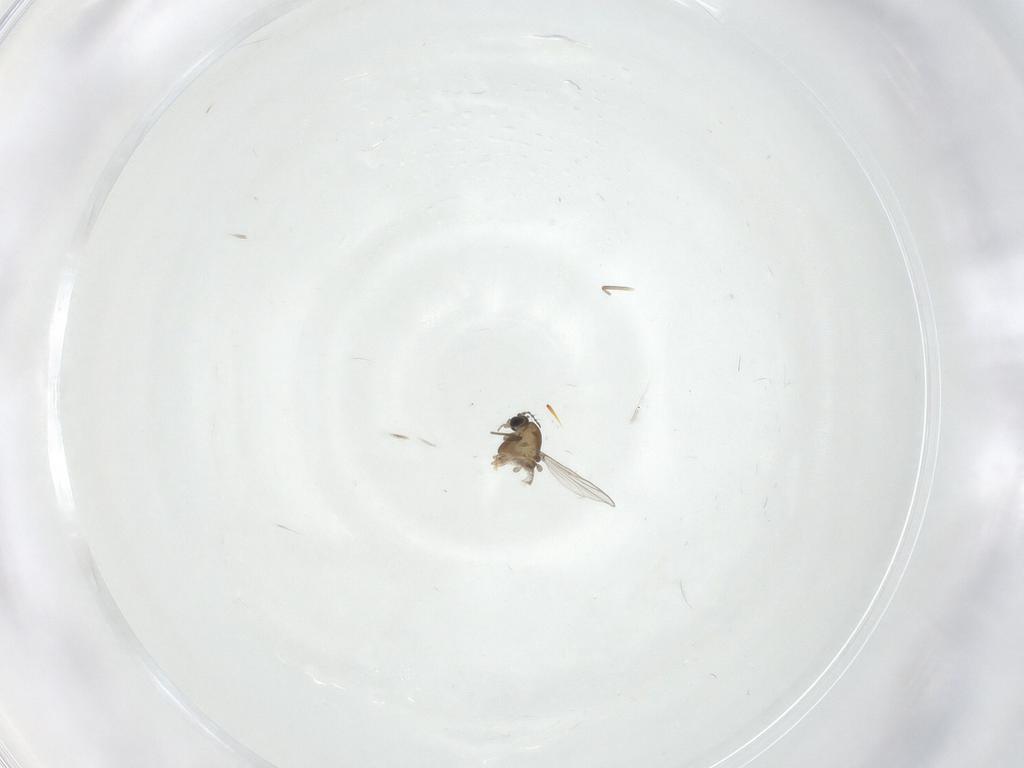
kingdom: Animalia
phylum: Arthropoda
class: Insecta
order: Diptera
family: Chironomidae
